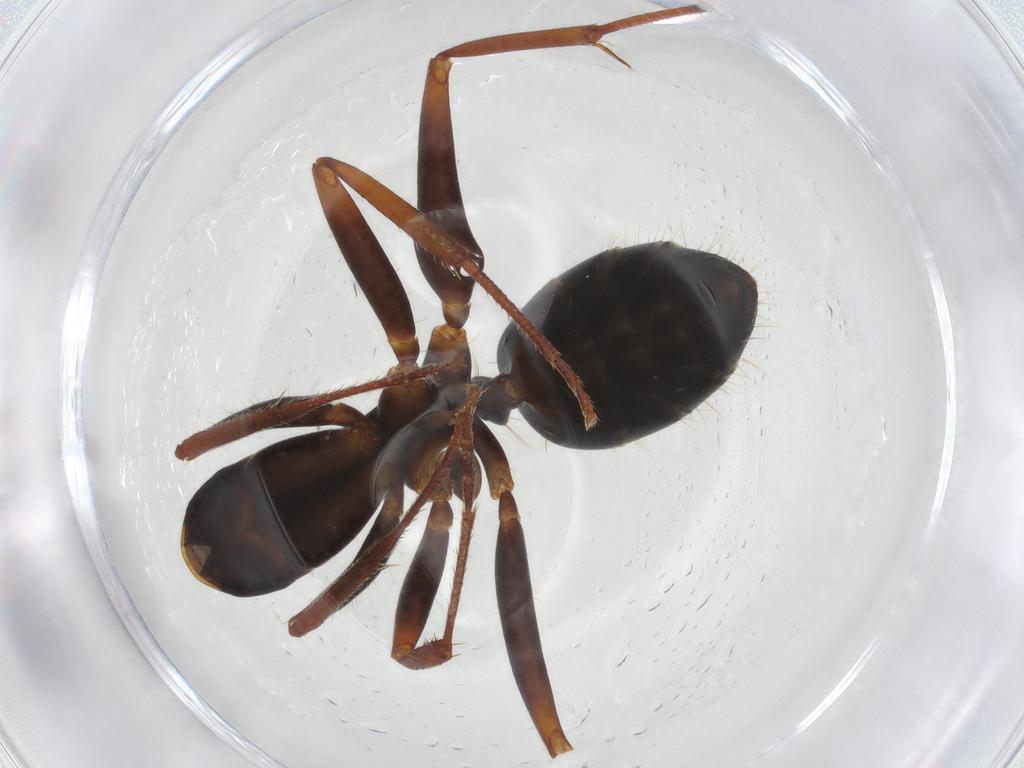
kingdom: Animalia
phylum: Arthropoda
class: Insecta
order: Hymenoptera
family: Formicidae
